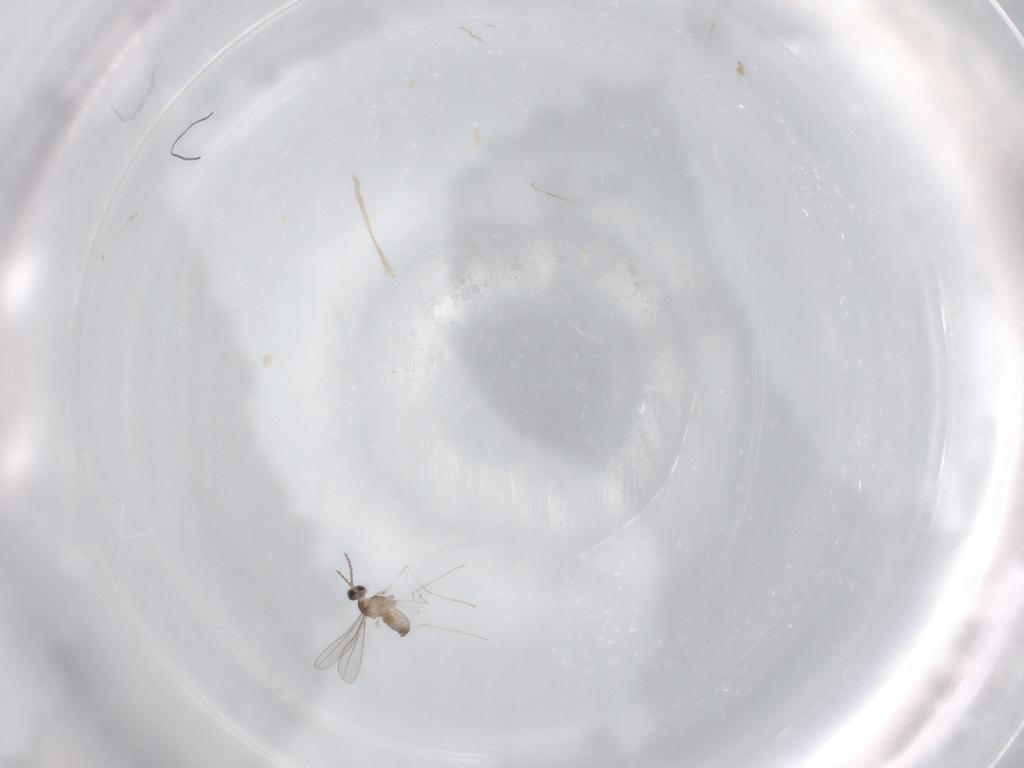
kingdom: Animalia
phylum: Arthropoda
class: Insecta
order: Diptera
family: Cecidomyiidae
